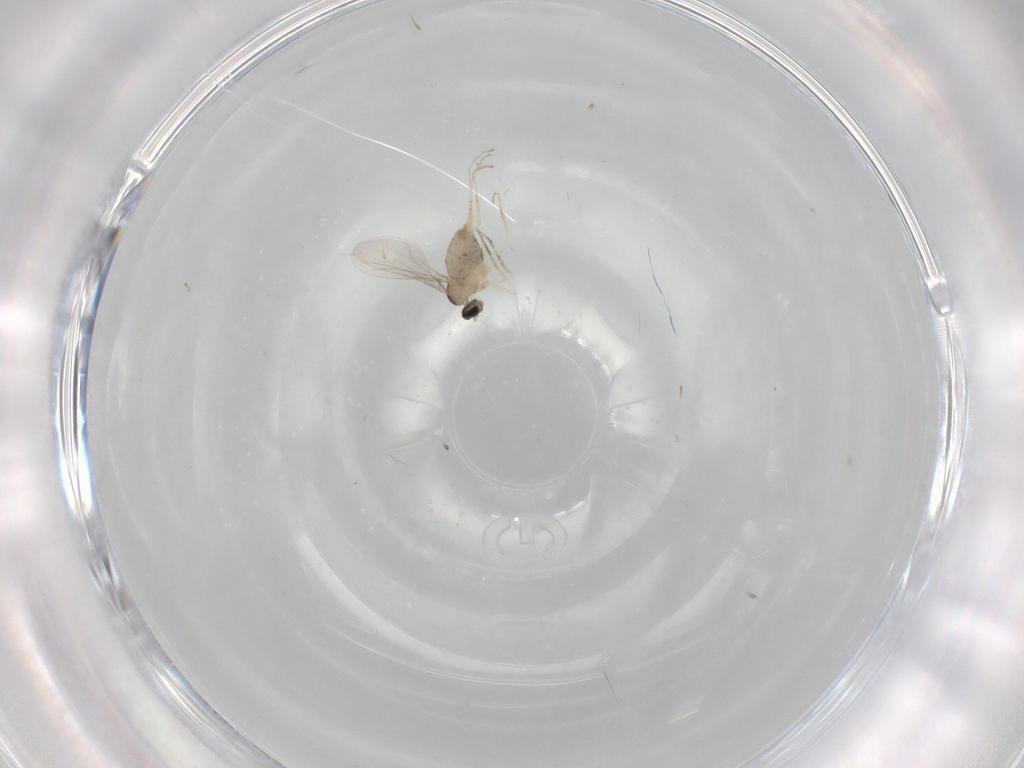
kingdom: Animalia
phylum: Arthropoda
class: Insecta
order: Diptera
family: Cecidomyiidae
